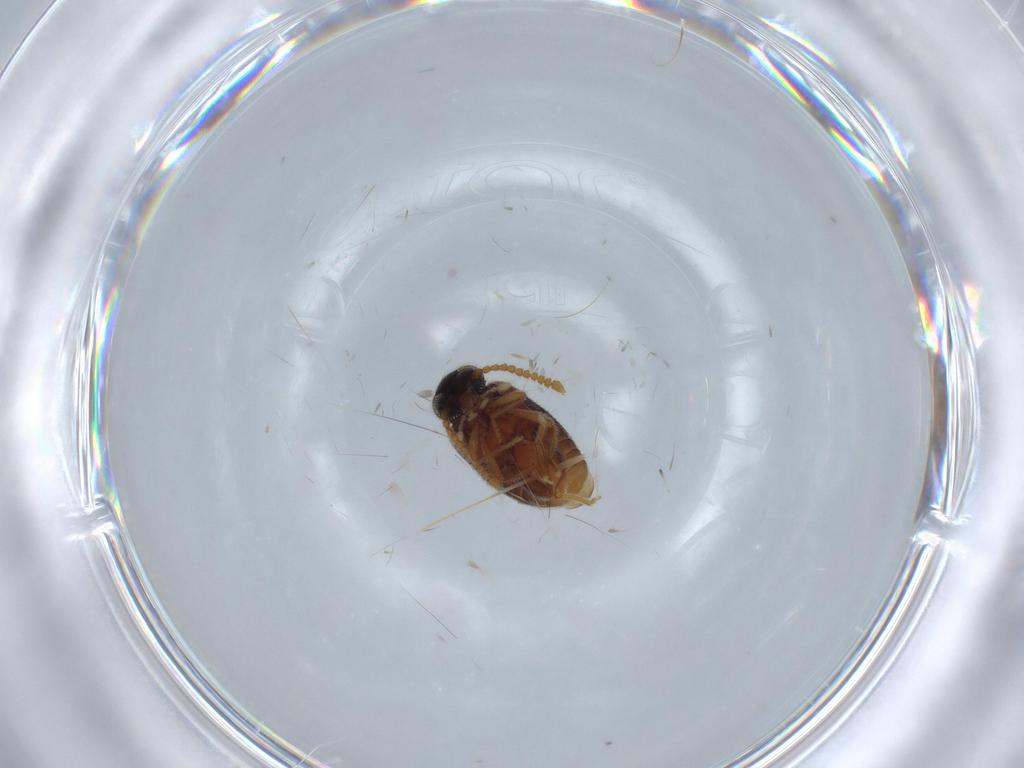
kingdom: Animalia
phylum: Arthropoda
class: Insecta
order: Coleoptera
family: Aderidae
